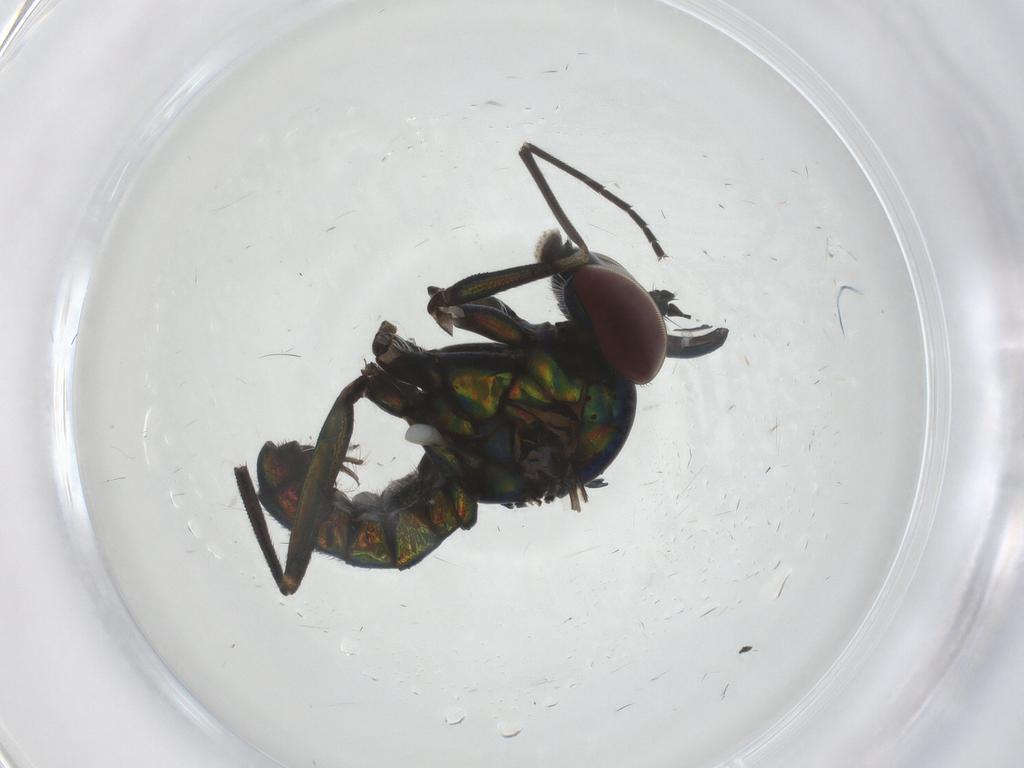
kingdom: Animalia
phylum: Arthropoda
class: Insecta
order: Diptera
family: Dolichopodidae
